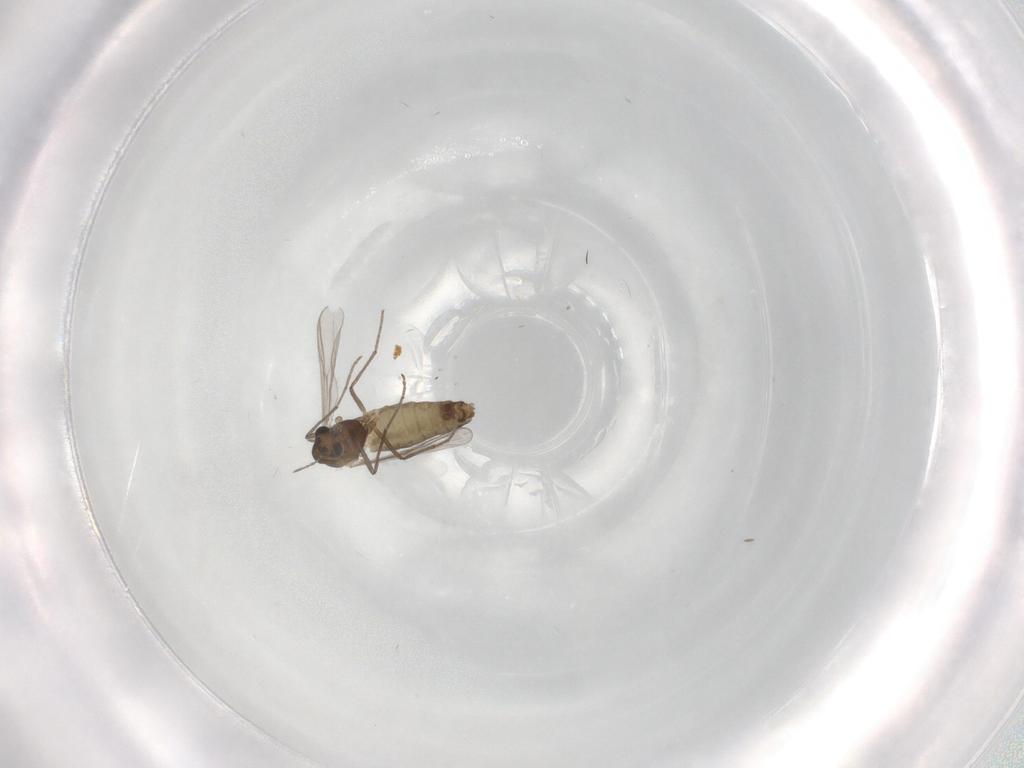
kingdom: Animalia
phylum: Arthropoda
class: Insecta
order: Diptera
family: Chironomidae
